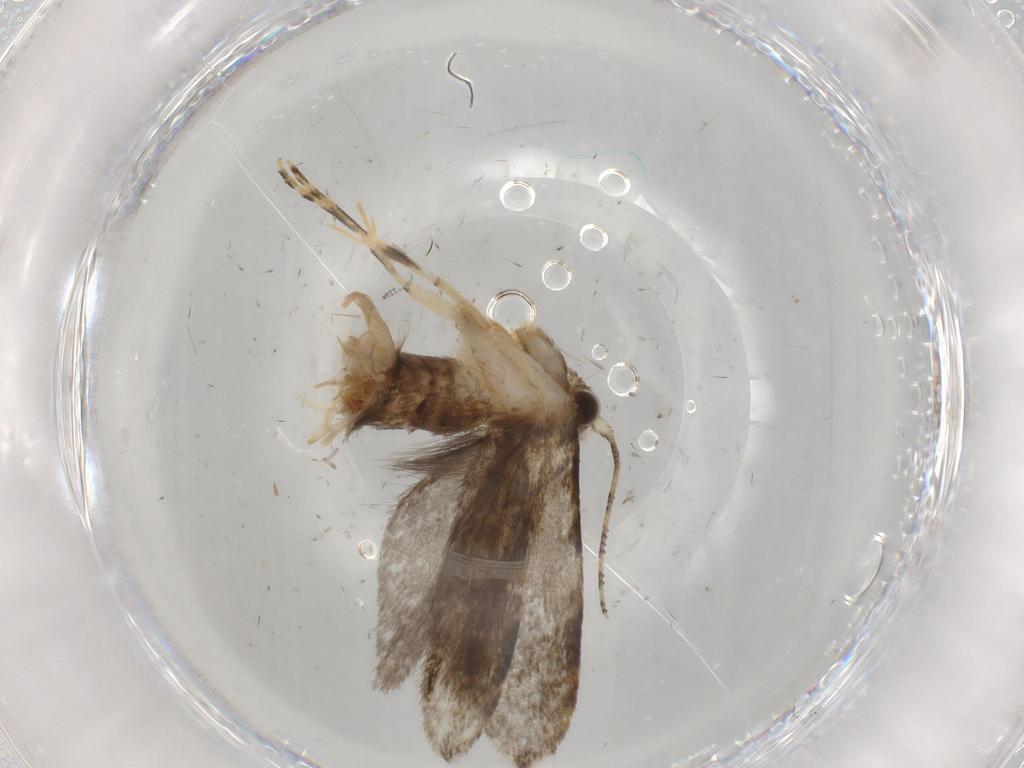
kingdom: Animalia
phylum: Arthropoda
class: Insecta
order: Lepidoptera
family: Tineidae
